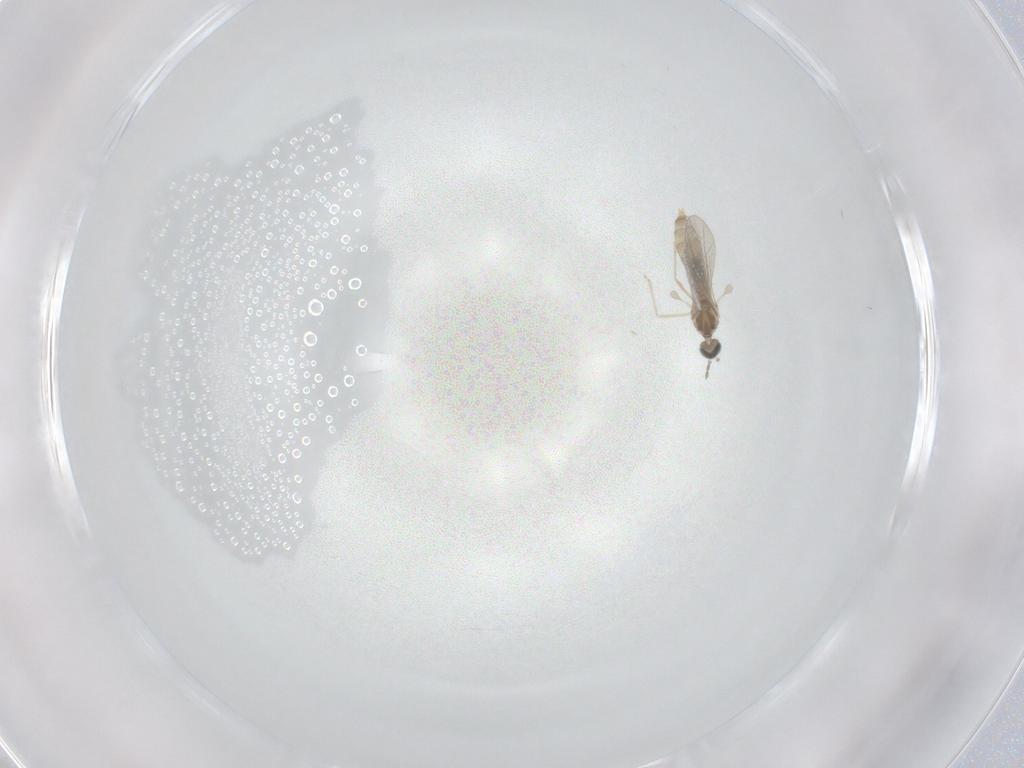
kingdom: Animalia
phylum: Arthropoda
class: Insecta
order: Diptera
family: Cecidomyiidae
